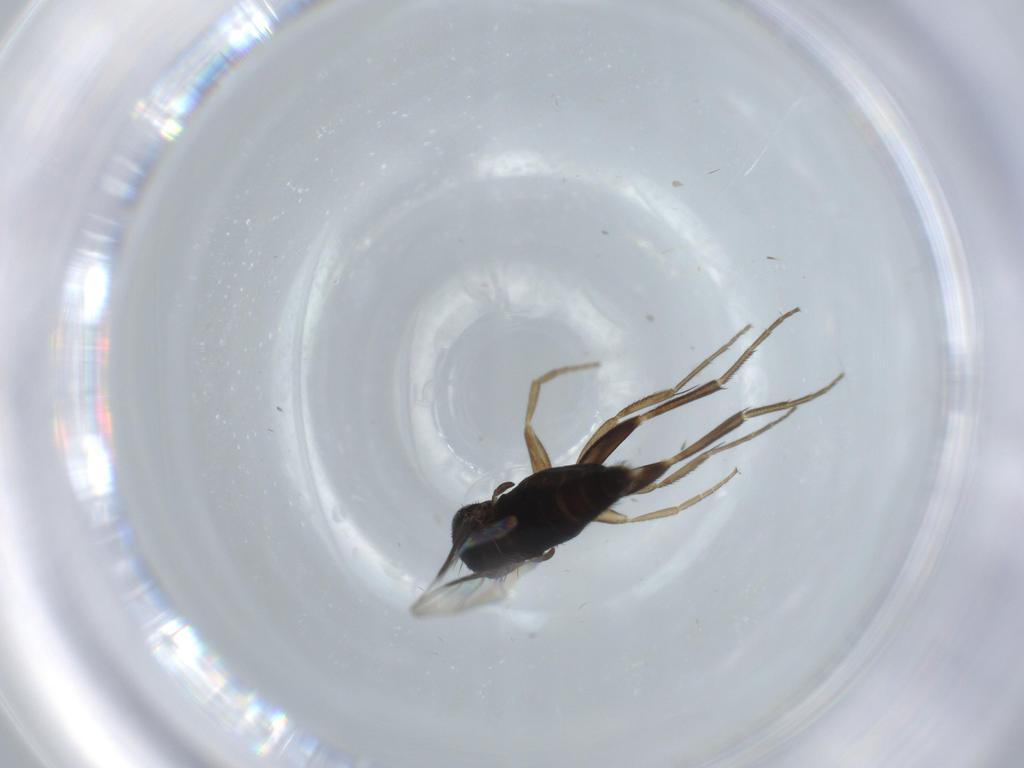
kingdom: Animalia
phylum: Arthropoda
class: Insecta
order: Diptera
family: Phoridae
